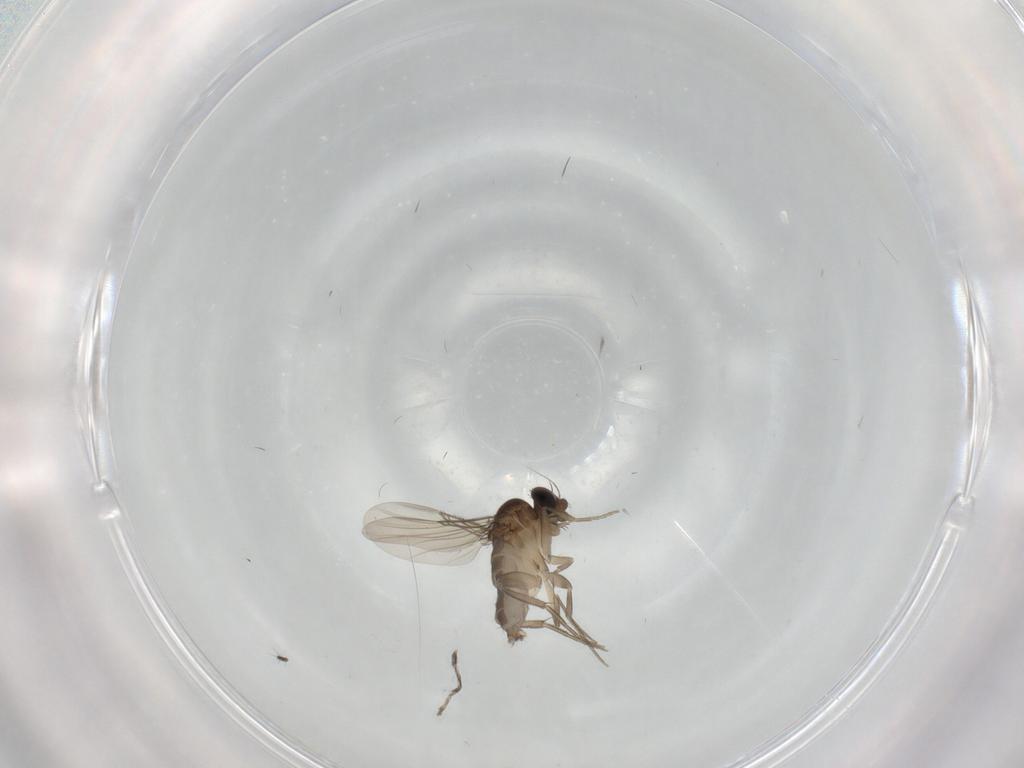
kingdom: Animalia
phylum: Arthropoda
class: Insecta
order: Diptera
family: Phoridae
